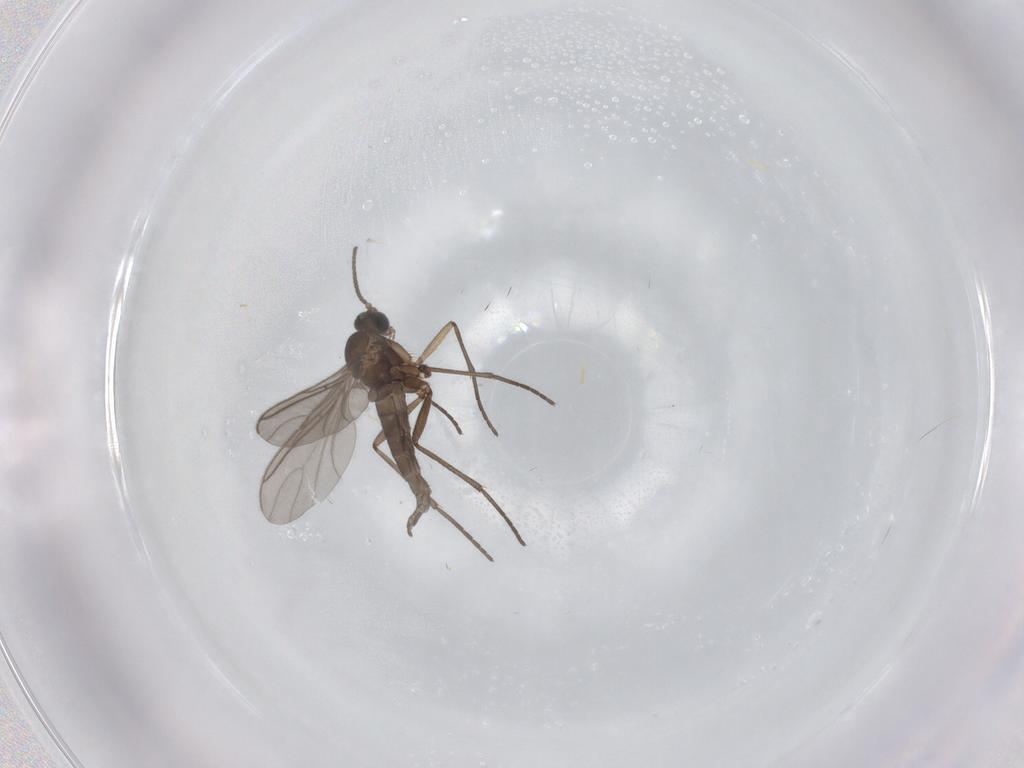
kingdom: Animalia
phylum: Arthropoda
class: Insecta
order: Diptera
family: Sciaridae
